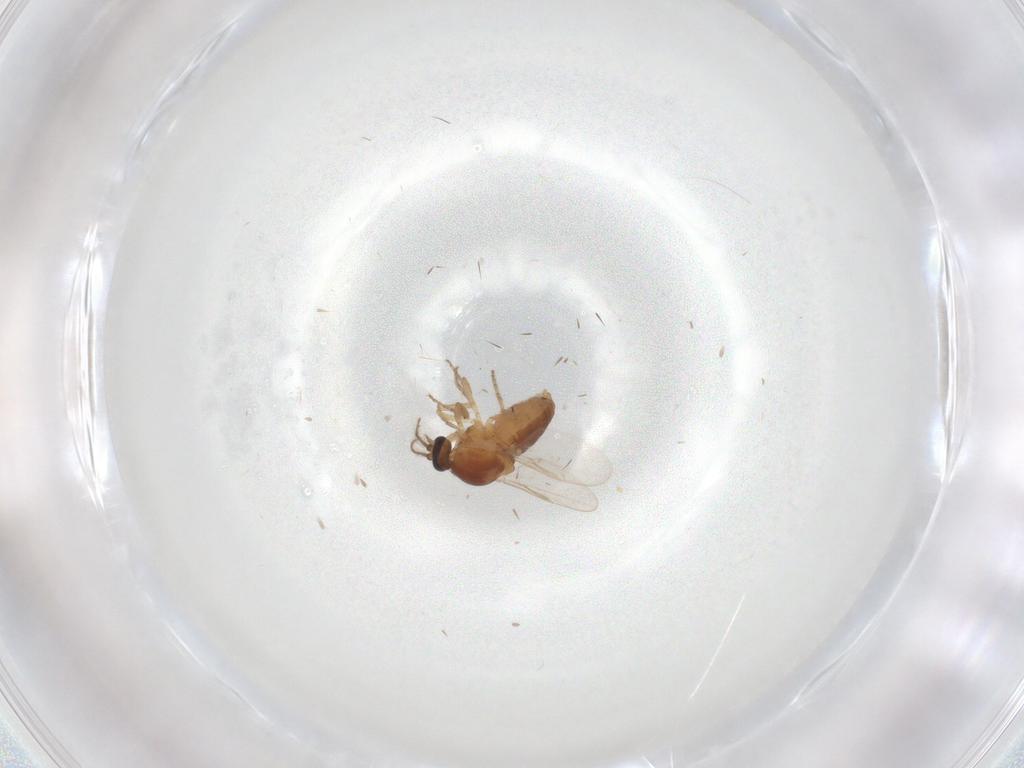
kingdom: Animalia
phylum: Arthropoda
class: Insecta
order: Diptera
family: Ceratopogonidae
